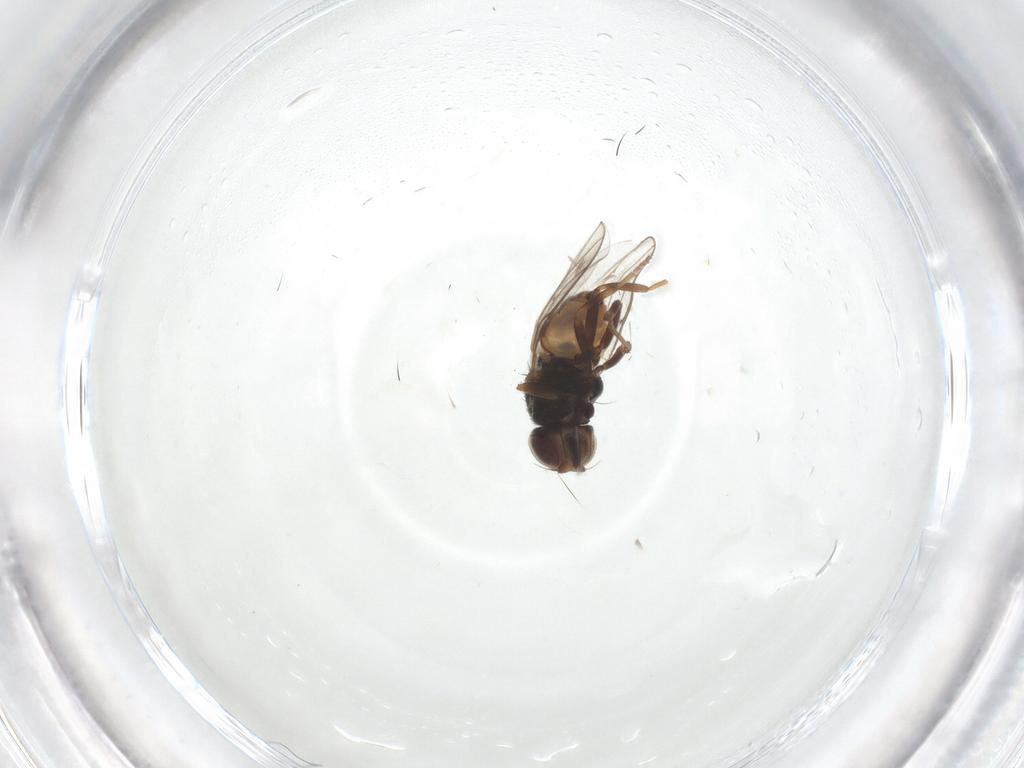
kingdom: Animalia
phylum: Arthropoda
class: Insecta
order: Diptera
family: Chloropidae
